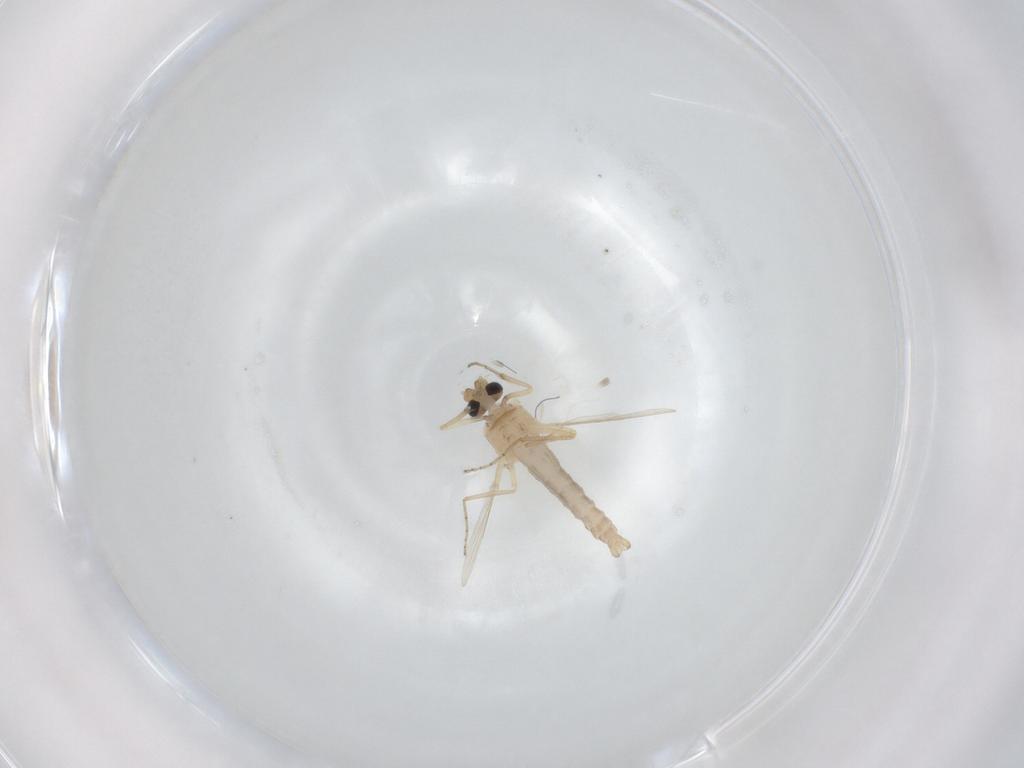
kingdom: Animalia
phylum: Arthropoda
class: Insecta
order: Diptera
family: Ceratopogonidae
